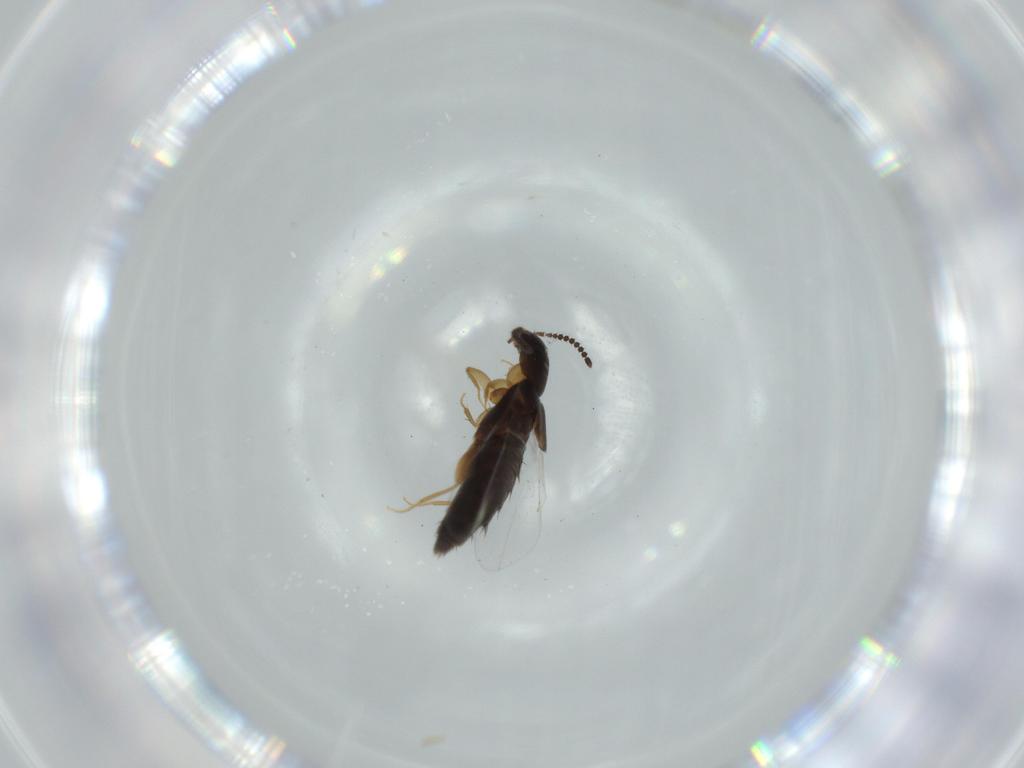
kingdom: Animalia
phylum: Arthropoda
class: Insecta
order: Coleoptera
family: Staphylinidae
